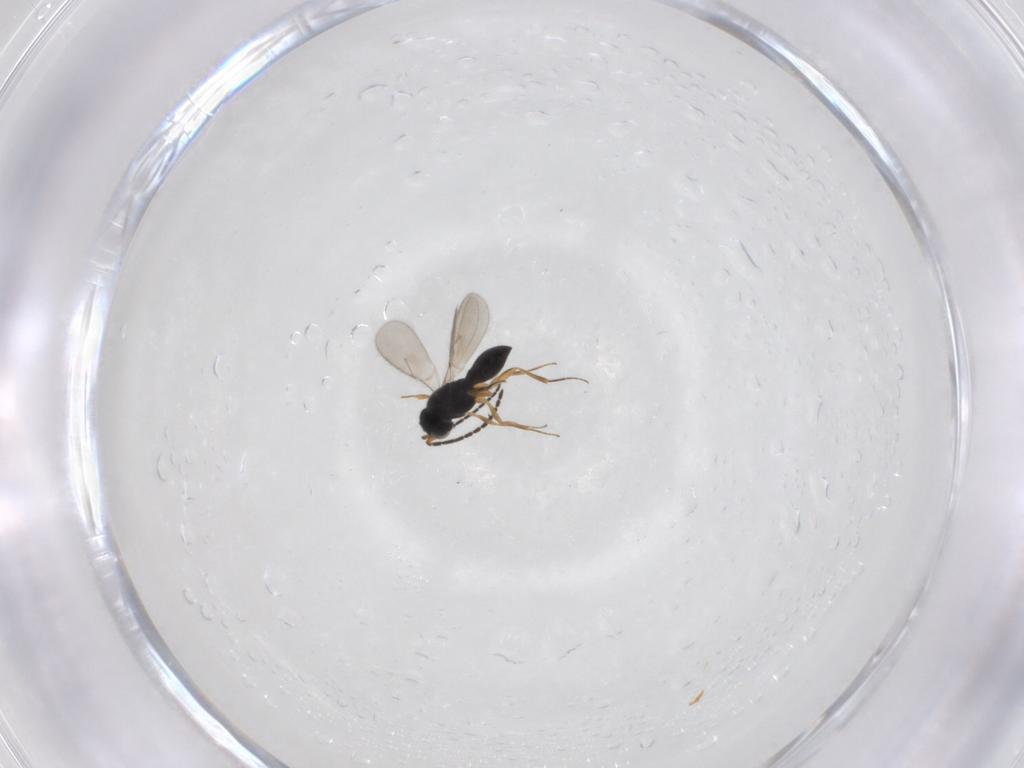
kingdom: Animalia
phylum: Arthropoda
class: Insecta
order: Hymenoptera
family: Scelionidae
